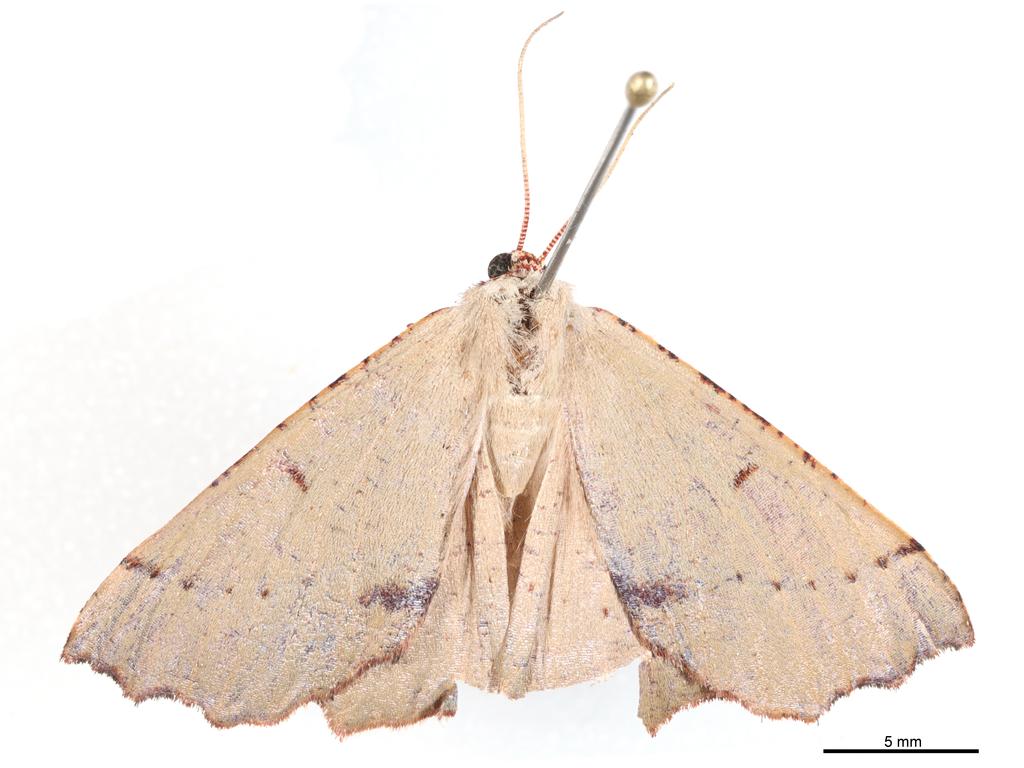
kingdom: Animalia
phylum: Arthropoda
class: Insecta
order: Lepidoptera
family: Geometridae
